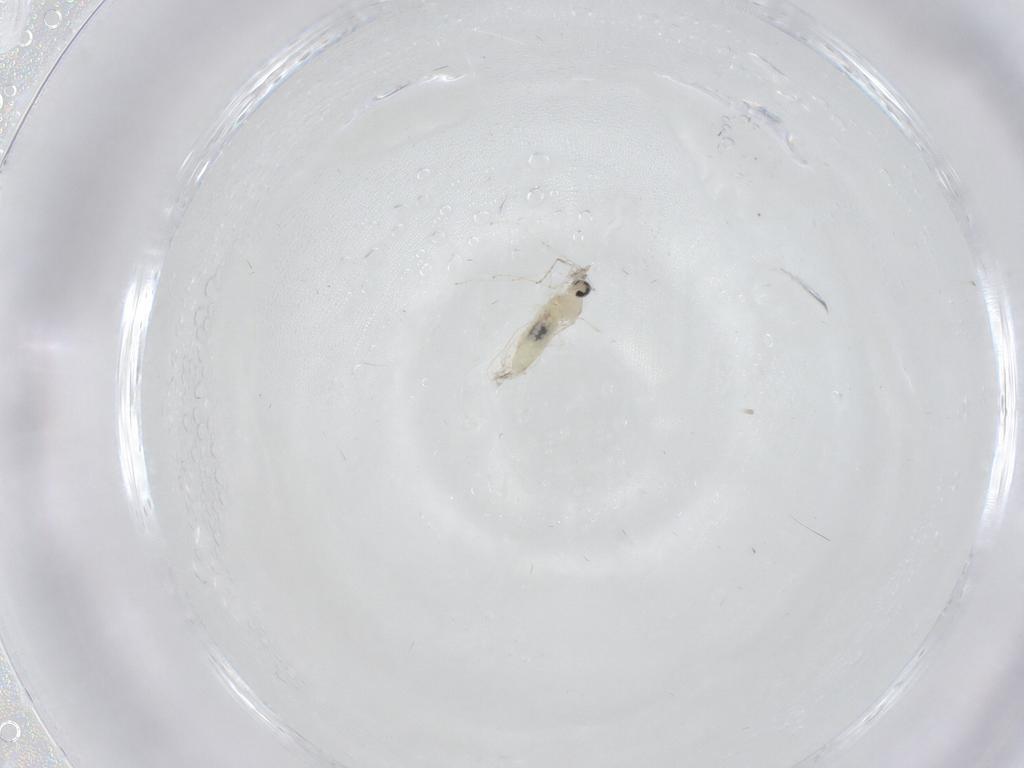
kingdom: Animalia
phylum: Arthropoda
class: Insecta
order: Diptera
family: Cecidomyiidae
